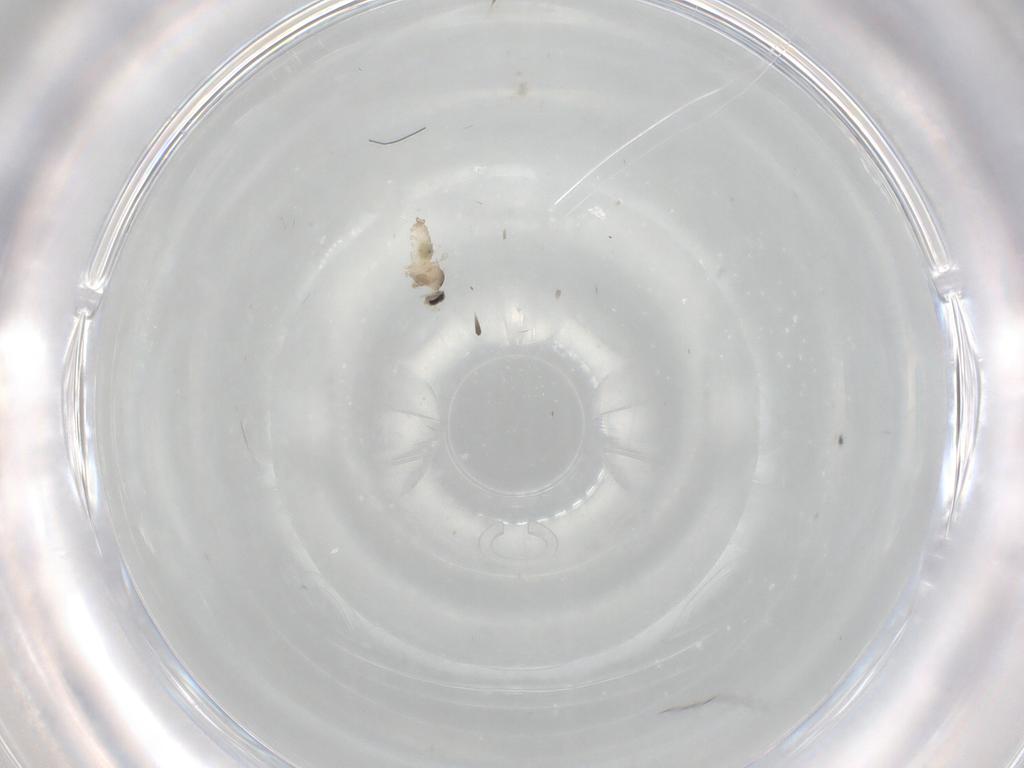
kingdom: Animalia
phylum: Arthropoda
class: Insecta
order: Diptera
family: Cecidomyiidae
